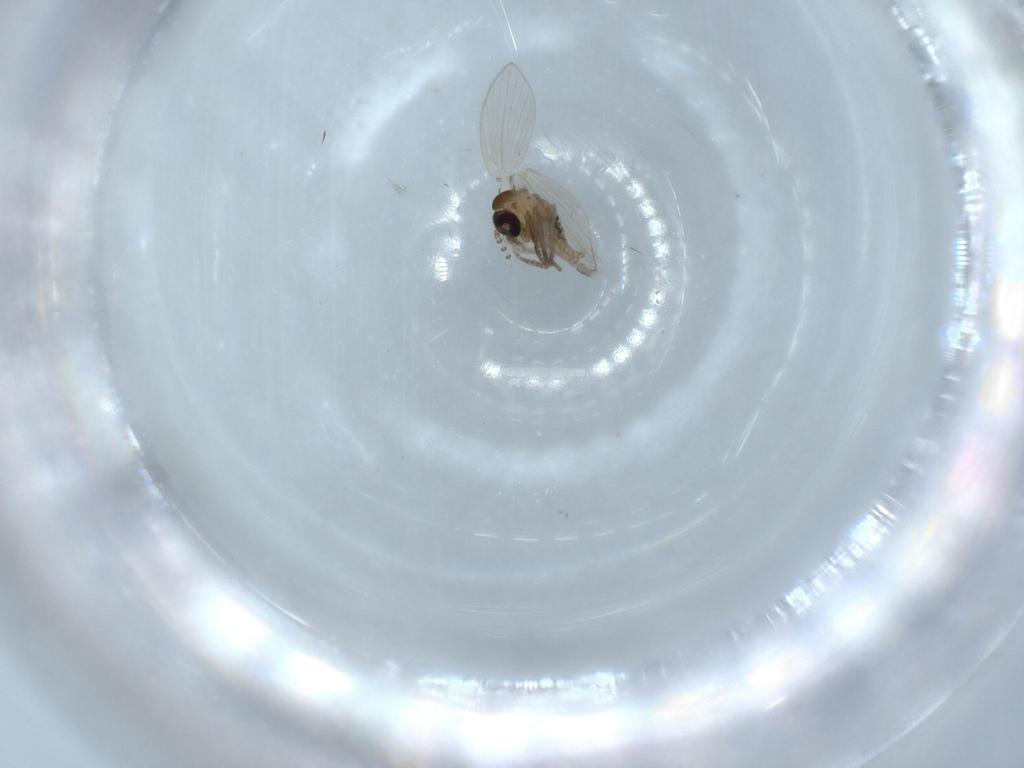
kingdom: Animalia
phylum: Arthropoda
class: Insecta
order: Diptera
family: Psychodidae
